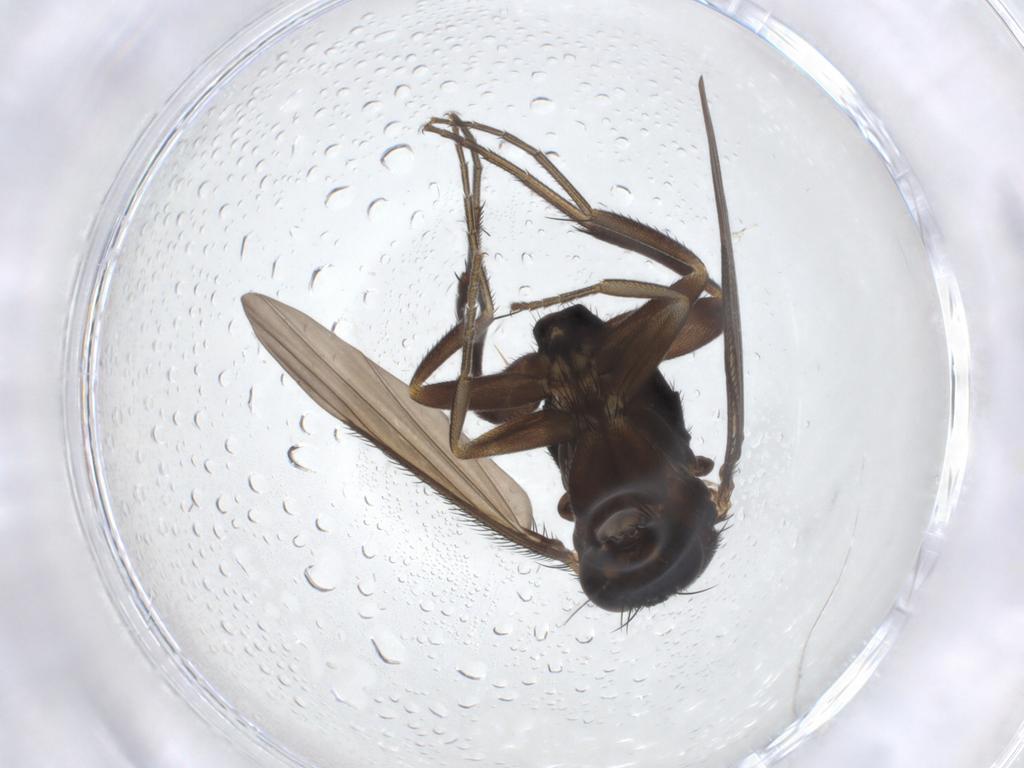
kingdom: Animalia
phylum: Arthropoda
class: Insecta
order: Diptera
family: Agromyzidae
